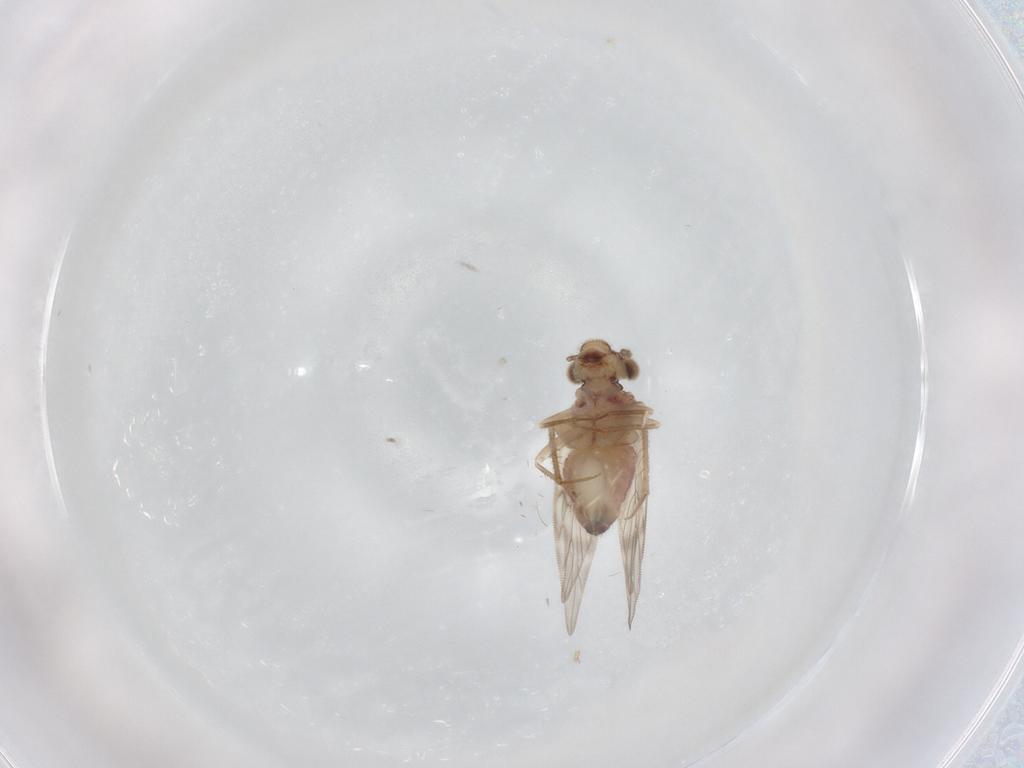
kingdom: Animalia
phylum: Arthropoda
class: Insecta
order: Psocodea
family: Lepidopsocidae
